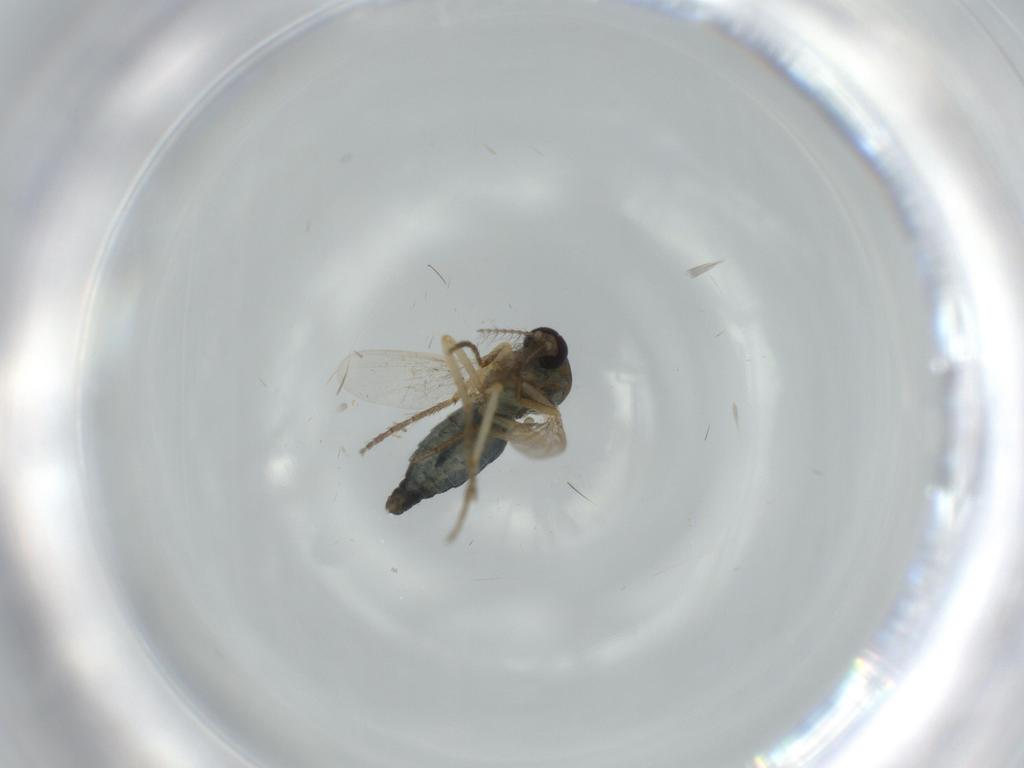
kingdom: Animalia
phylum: Arthropoda
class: Insecta
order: Diptera
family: Ceratopogonidae
